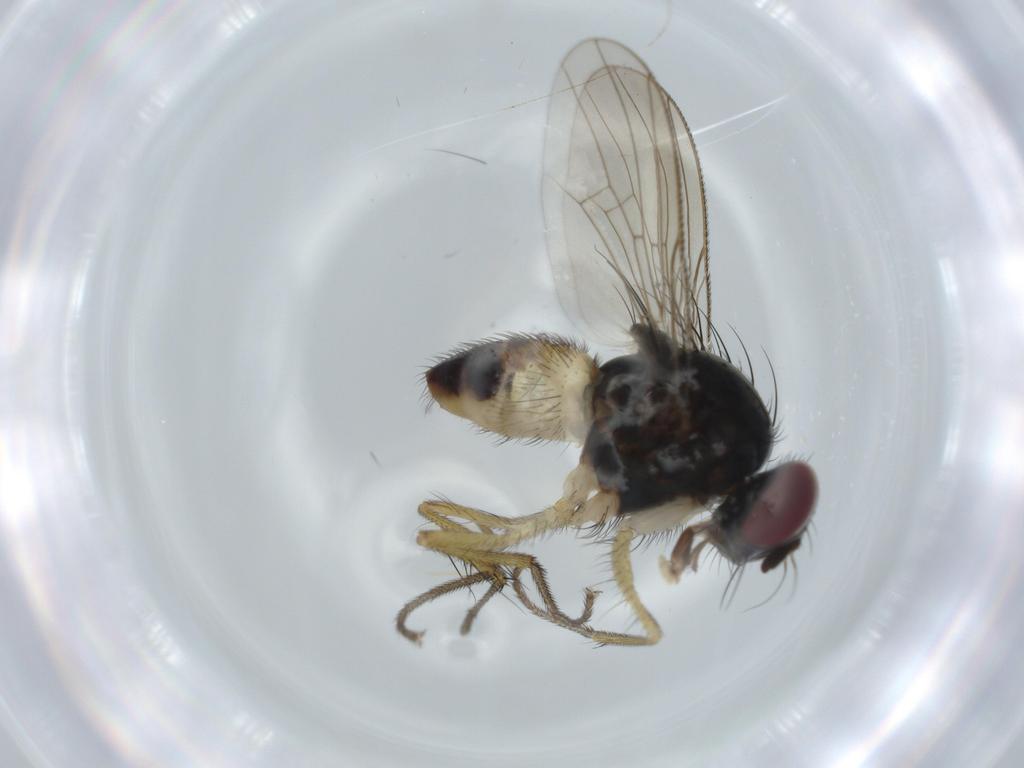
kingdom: Animalia
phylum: Arthropoda
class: Insecta
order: Diptera
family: Muscidae
